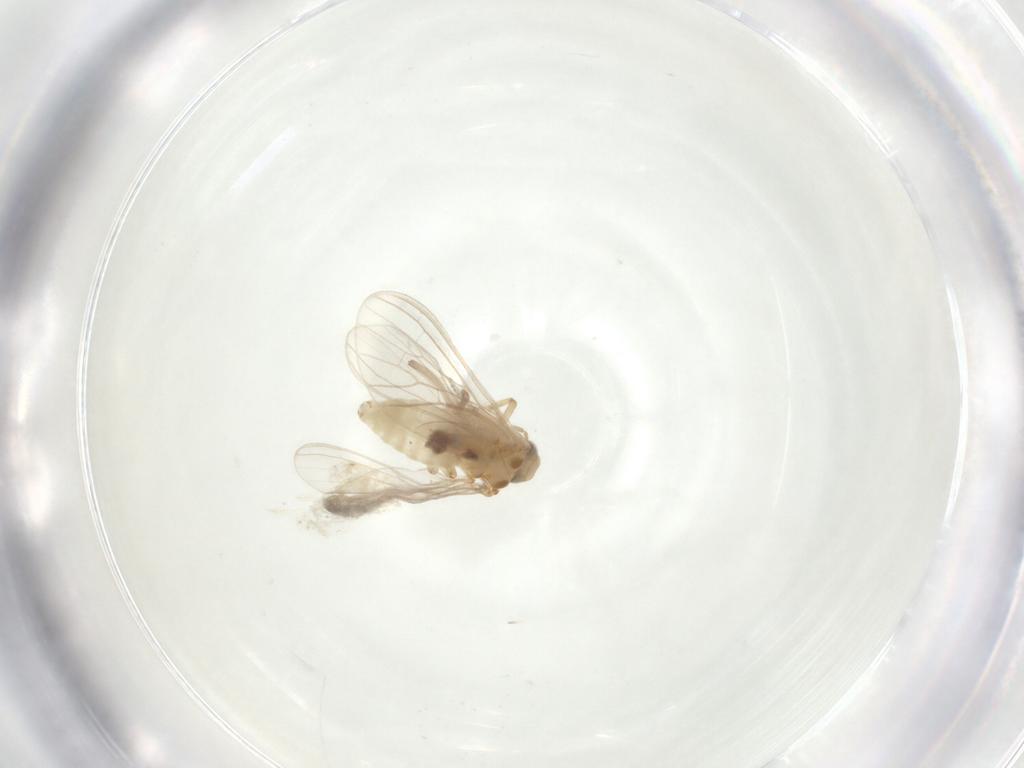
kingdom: Animalia
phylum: Arthropoda
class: Insecta
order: Neuroptera
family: Coniopterygidae
